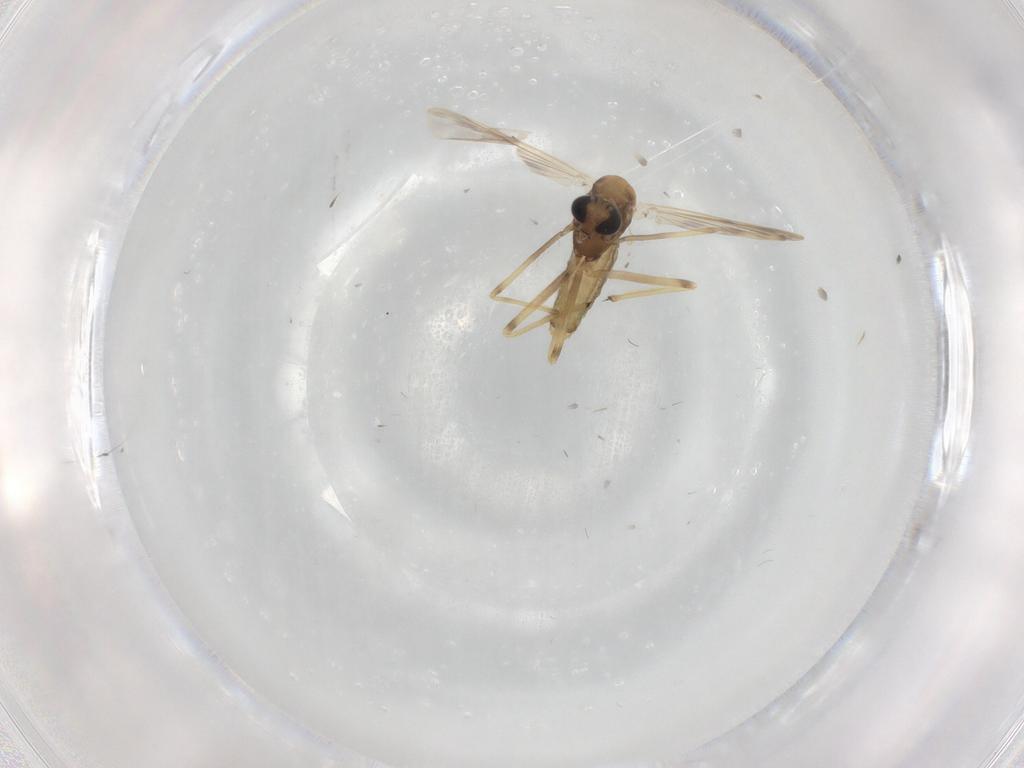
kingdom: Animalia
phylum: Arthropoda
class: Insecta
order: Diptera
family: Chironomidae
